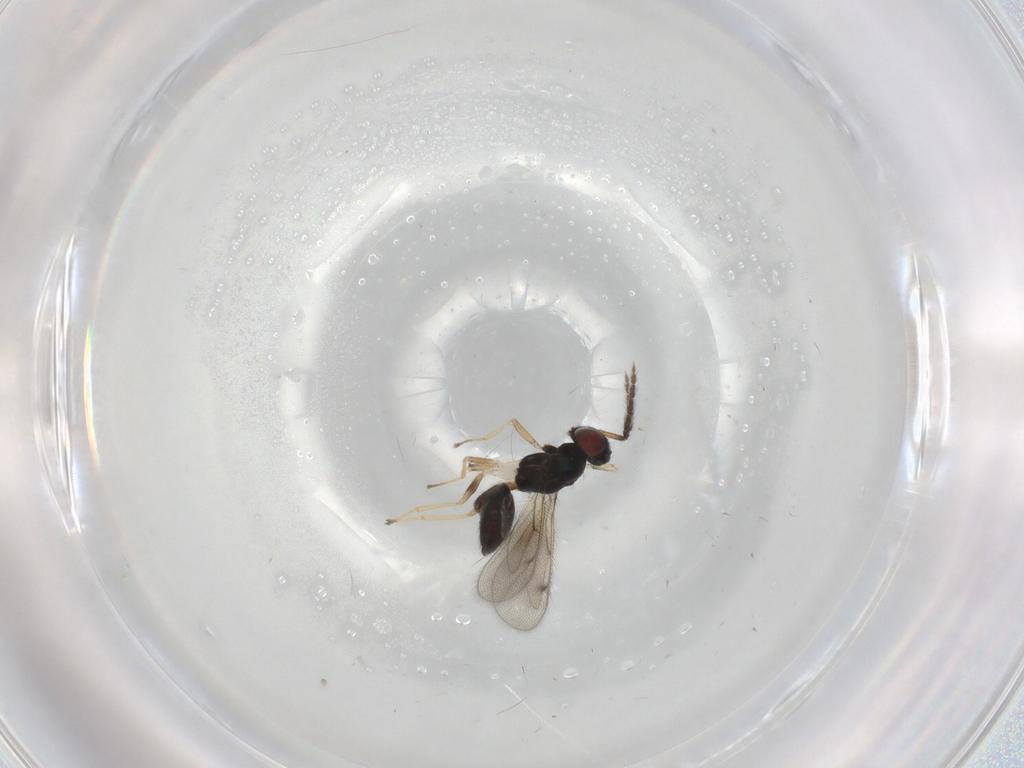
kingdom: Animalia
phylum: Arthropoda
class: Insecta
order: Hymenoptera
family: Eulophidae
